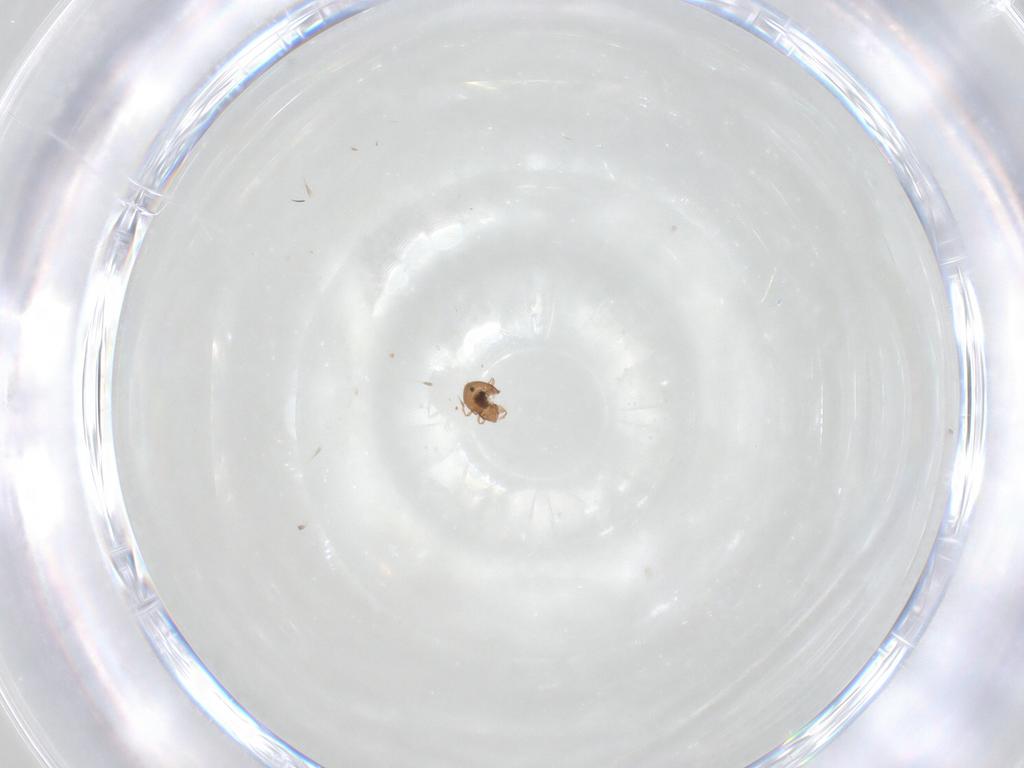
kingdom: Animalia
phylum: Arthropoda
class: Arachnida
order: Sarcoptiformes
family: Oribatulidae
